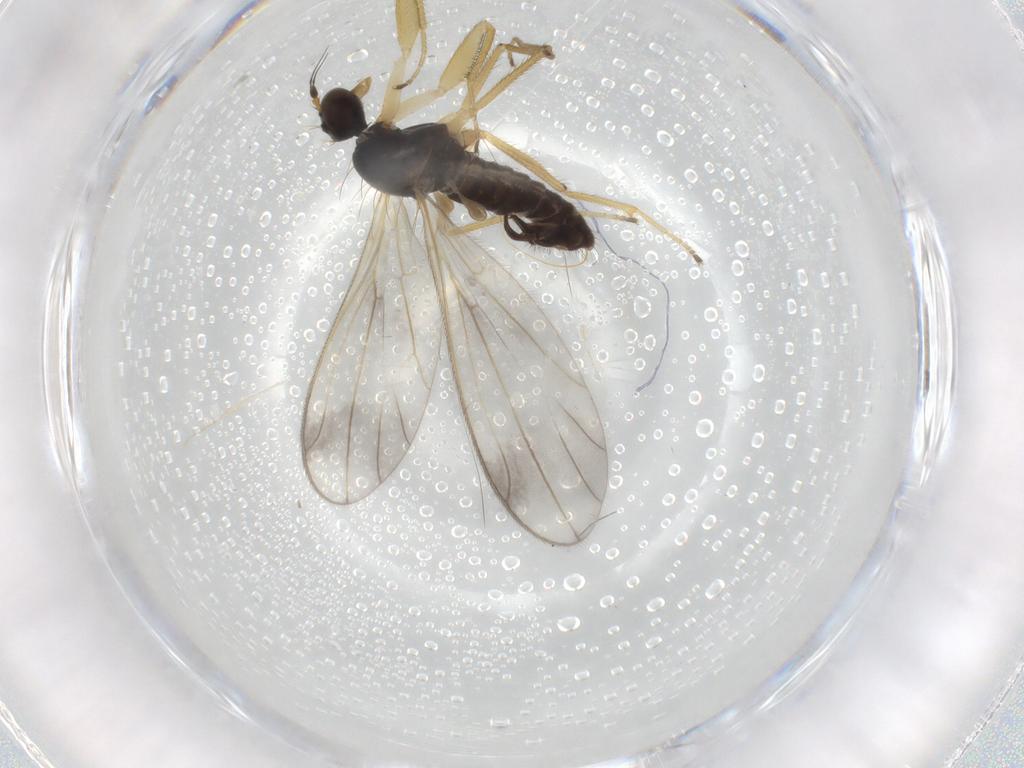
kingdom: Animalia
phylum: Arthropoda
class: Insecta
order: Diptera
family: Empididae
